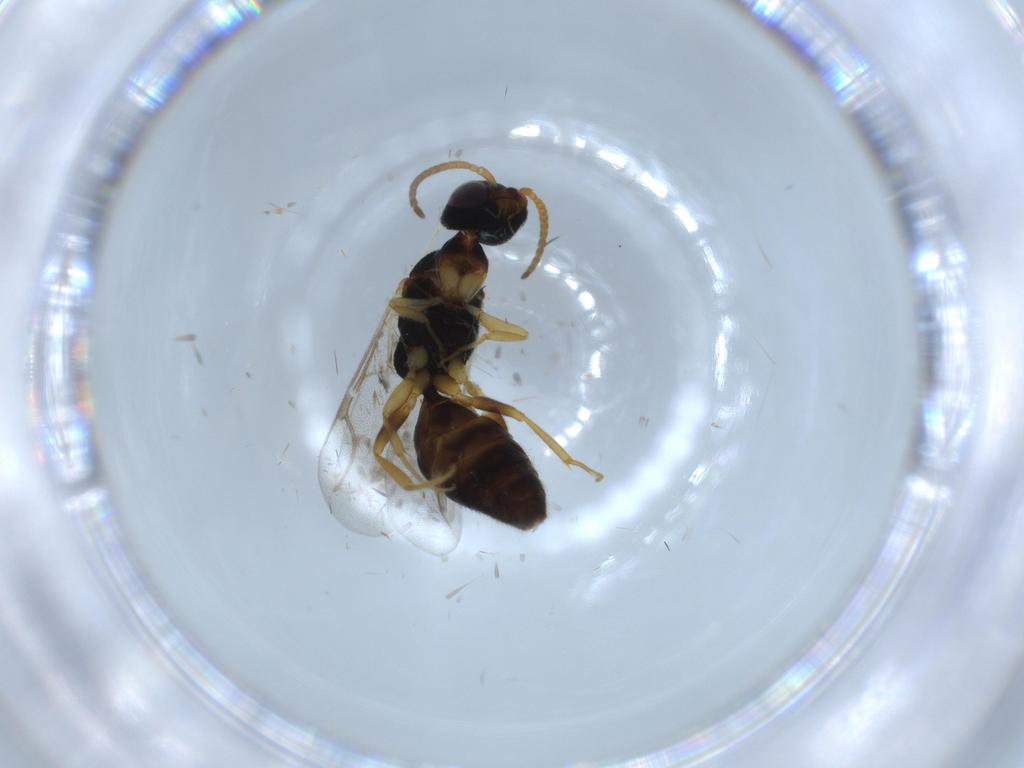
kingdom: Animalia
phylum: Arthropoda
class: Insecta
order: Hymenoptera
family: Bethylidae
